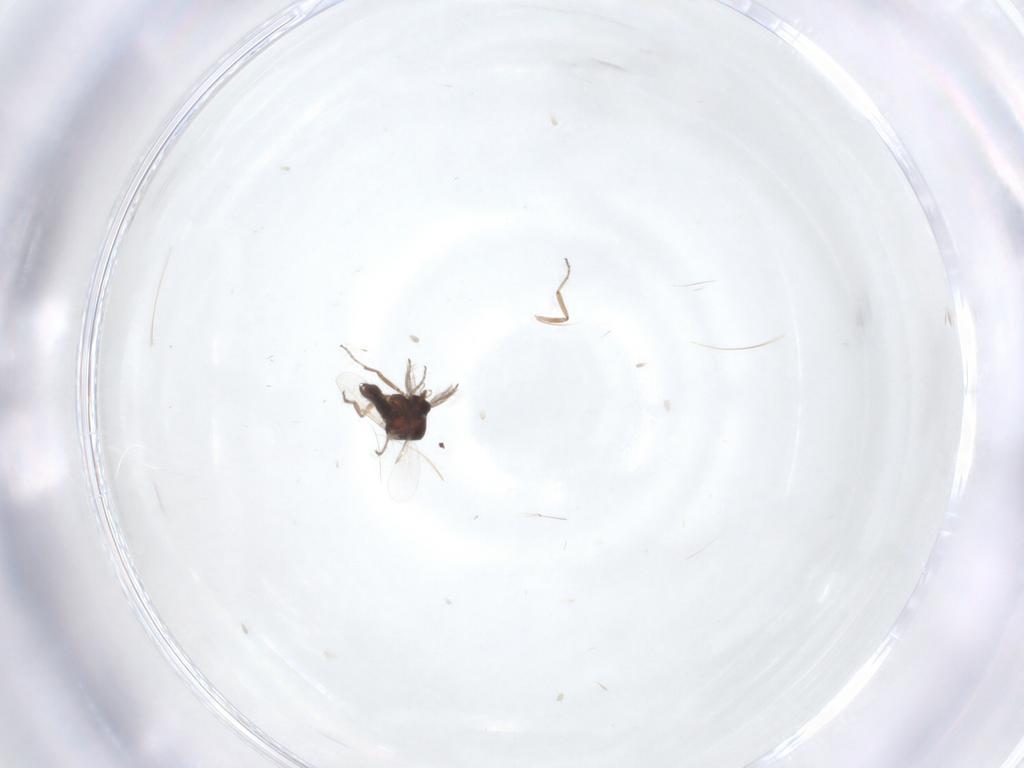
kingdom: Animalia
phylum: Arthropoda
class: Insecta
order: Diptera
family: Ceratopogonidae
